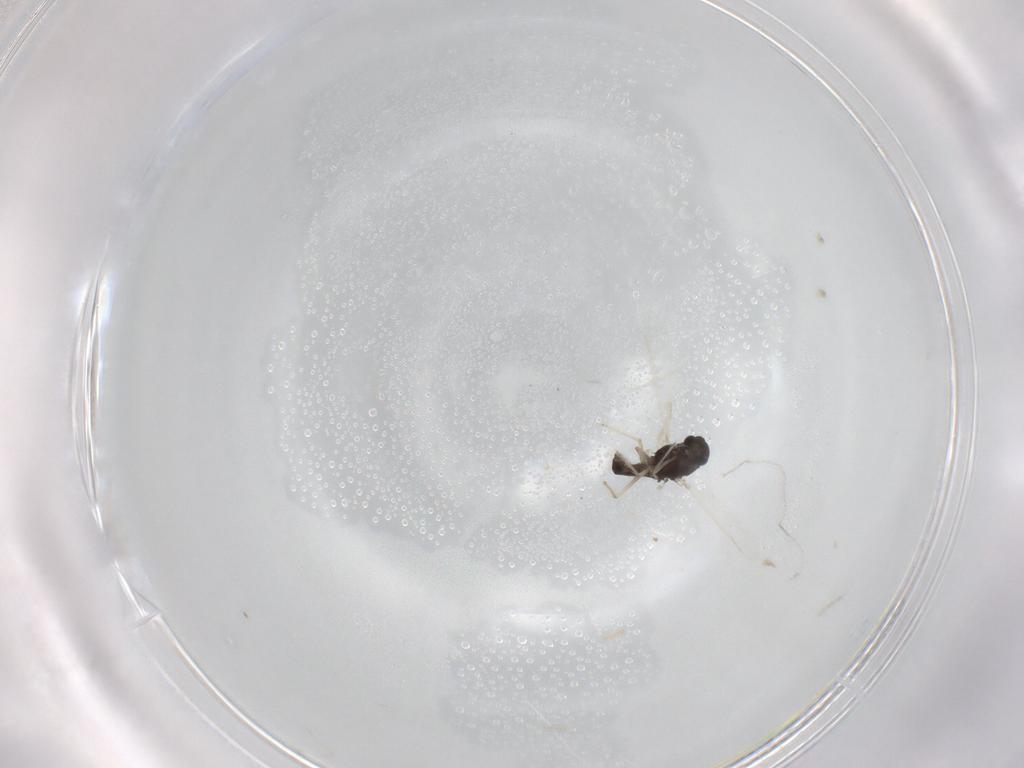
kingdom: Animalia
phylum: Arthropoda
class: Insecta
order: Diptera
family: Chironomidae
